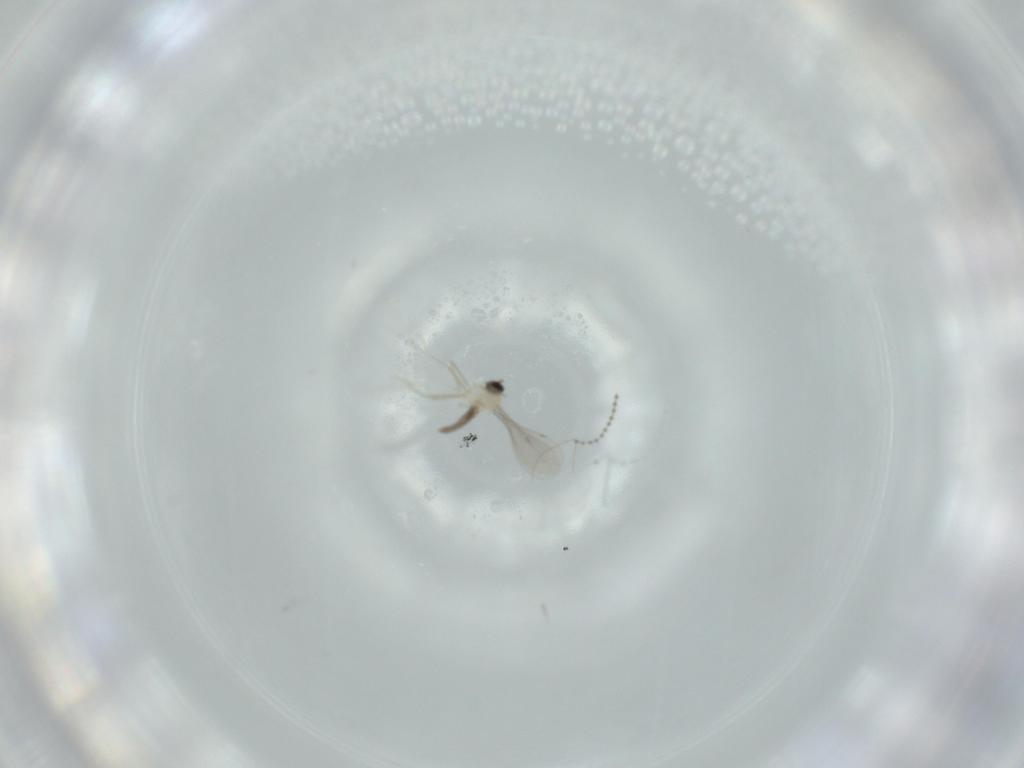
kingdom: Animalia
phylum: Arthropoda
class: Insecta
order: Diptera
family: Cecidomyiidae
